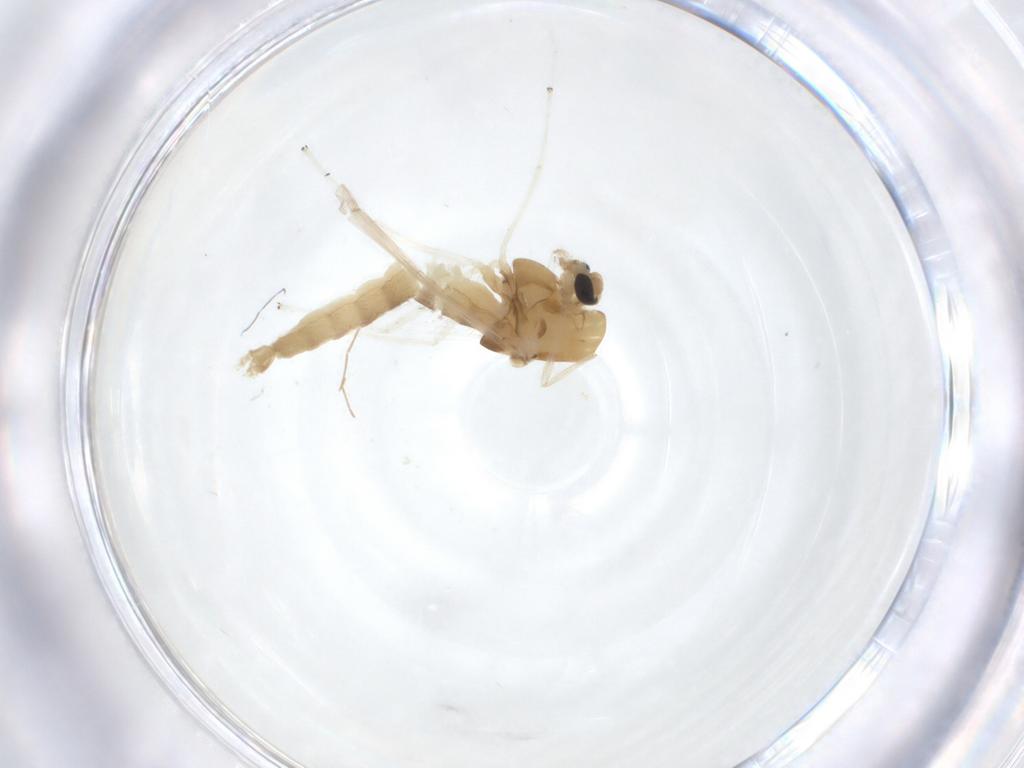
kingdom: Animalia
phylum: Arthropoda
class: Insecta
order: Diptera
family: Chironomidae
